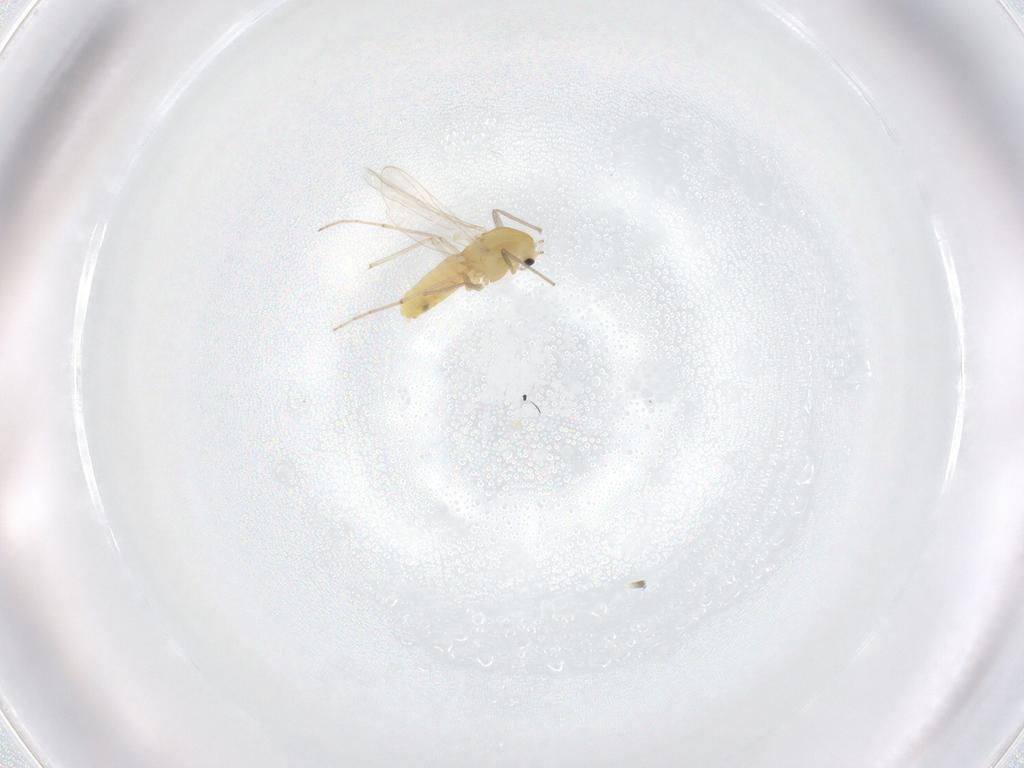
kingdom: Animalia
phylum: Arthropoda
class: Insecta
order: Diptera
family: Chironomidae
